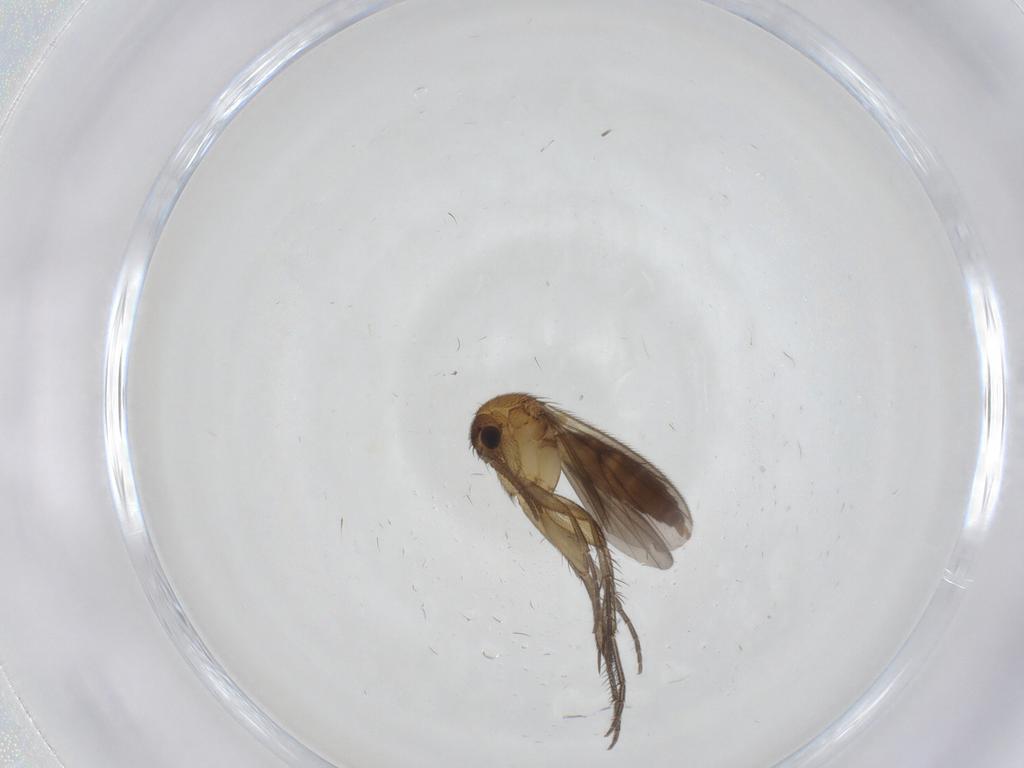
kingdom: Animalia
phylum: Arthropoda
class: Insecta
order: Diptera
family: Mycetophilidae
